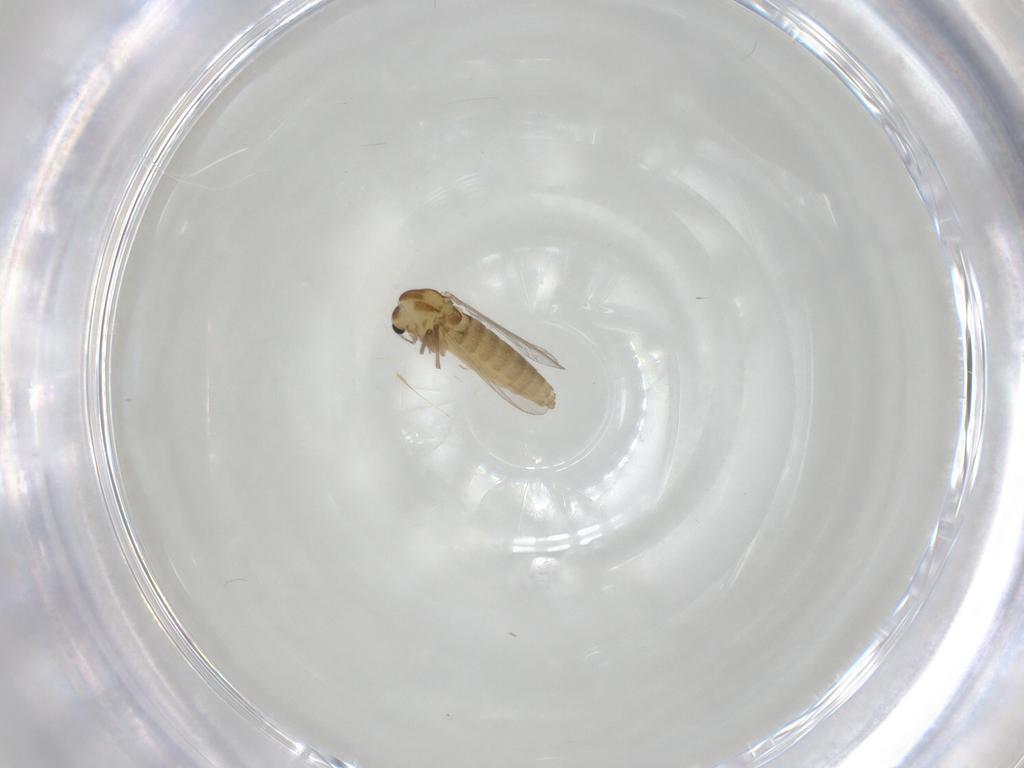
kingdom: Animalia
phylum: Arthropoda
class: Insecta
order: Diptera
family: Chironomidae
